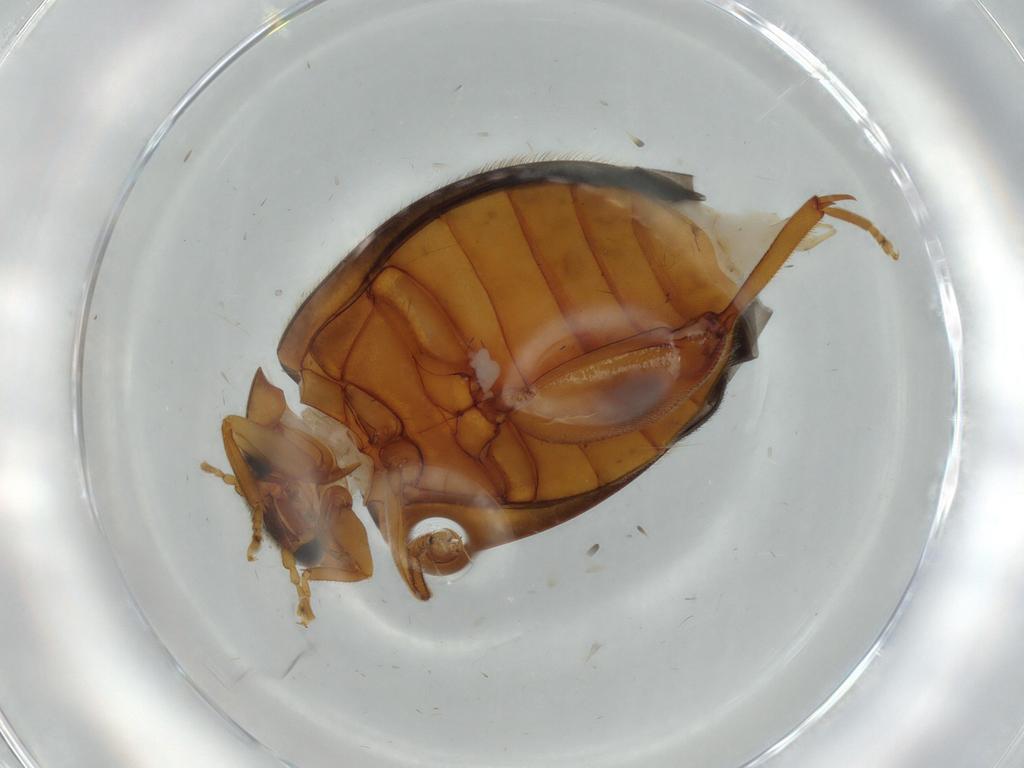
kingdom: Animalia
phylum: Arthropoda
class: Insecta
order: Coleoptera
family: Scirtidae
